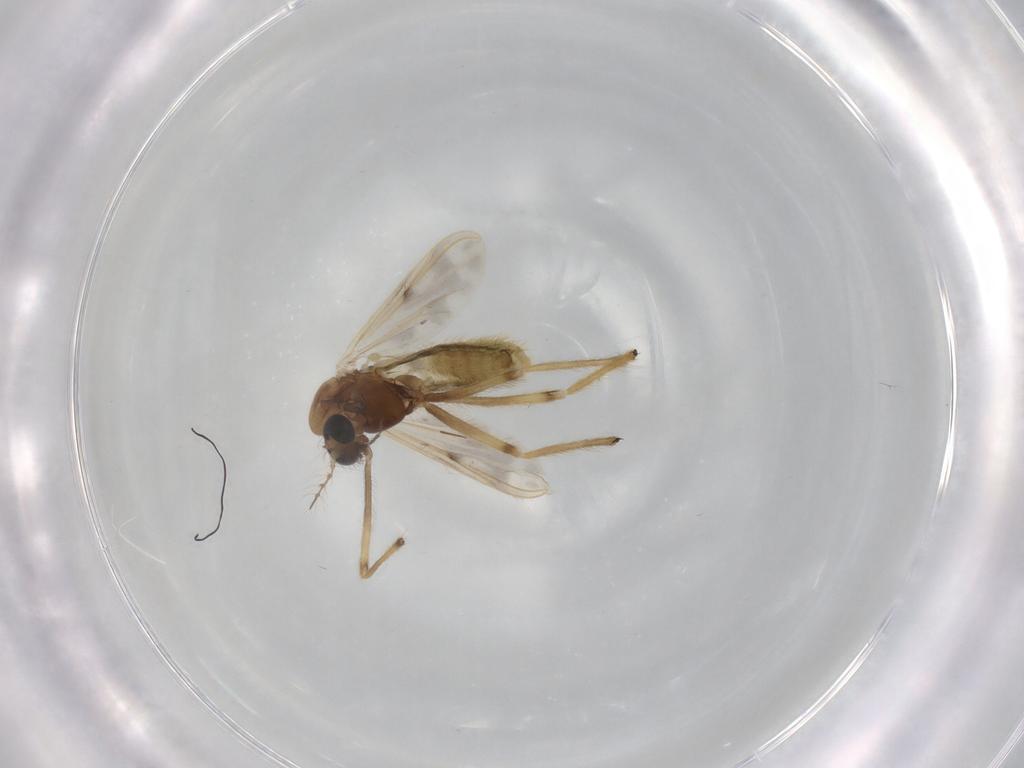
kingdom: Animalia
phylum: Arthropoda
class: Insecta
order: Diptera
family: Chironomidae
